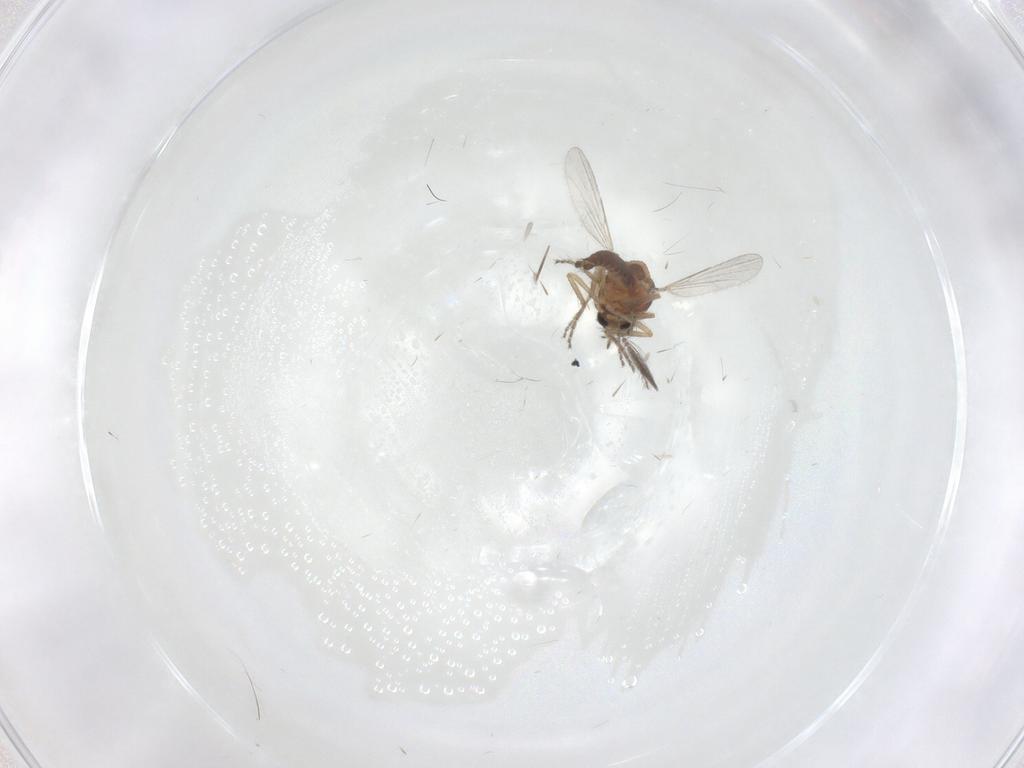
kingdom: Animalia
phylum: Arthropoda
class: Insecta
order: Diptera
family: Ceratopogonidae
